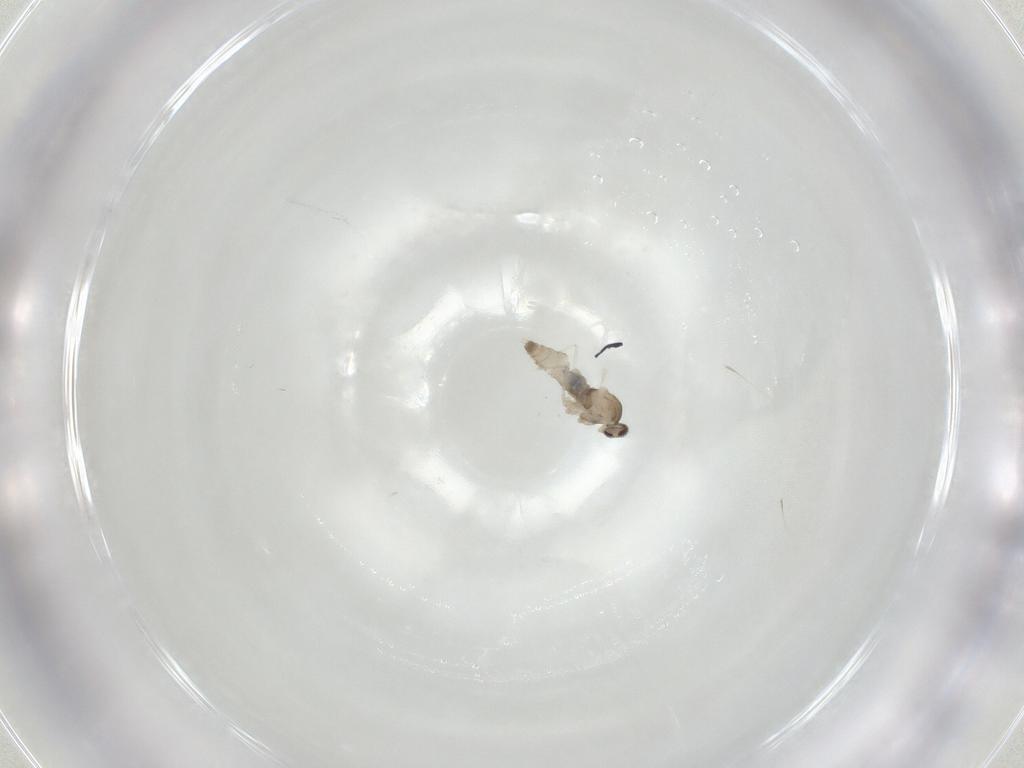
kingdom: Animalia
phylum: Arthropoda
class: Insecta
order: Diptera
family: Cecidomyiidae
